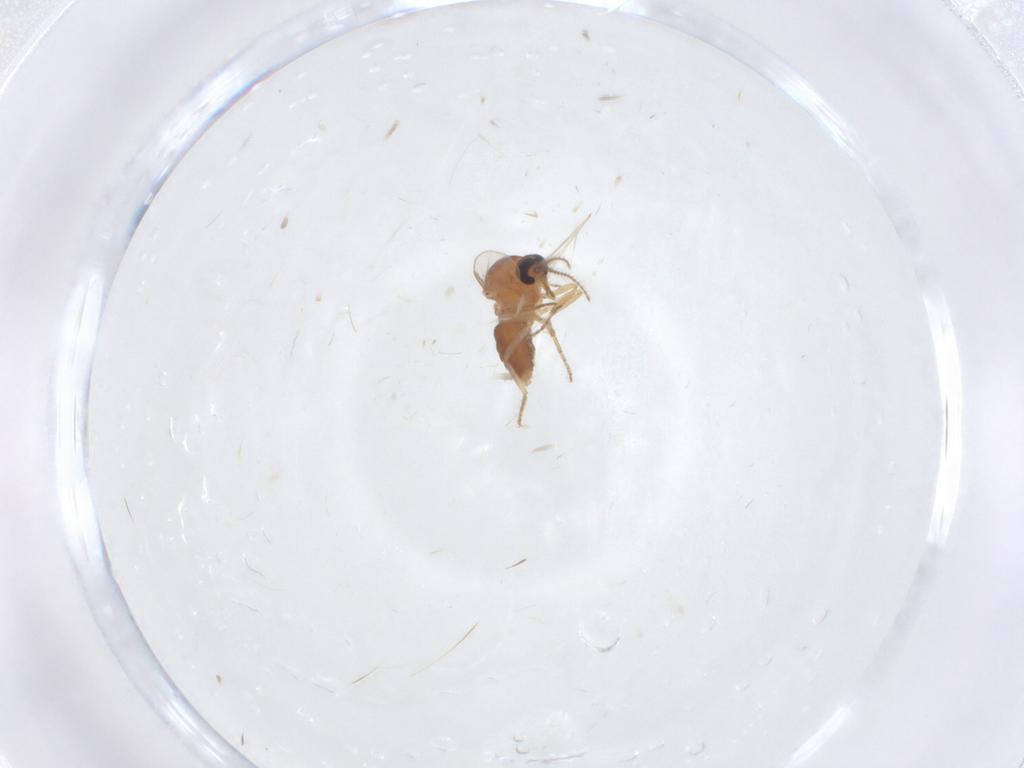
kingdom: Animalia
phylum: Arthropoda
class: Insecta
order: Diptera
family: Ceratopogonidae
